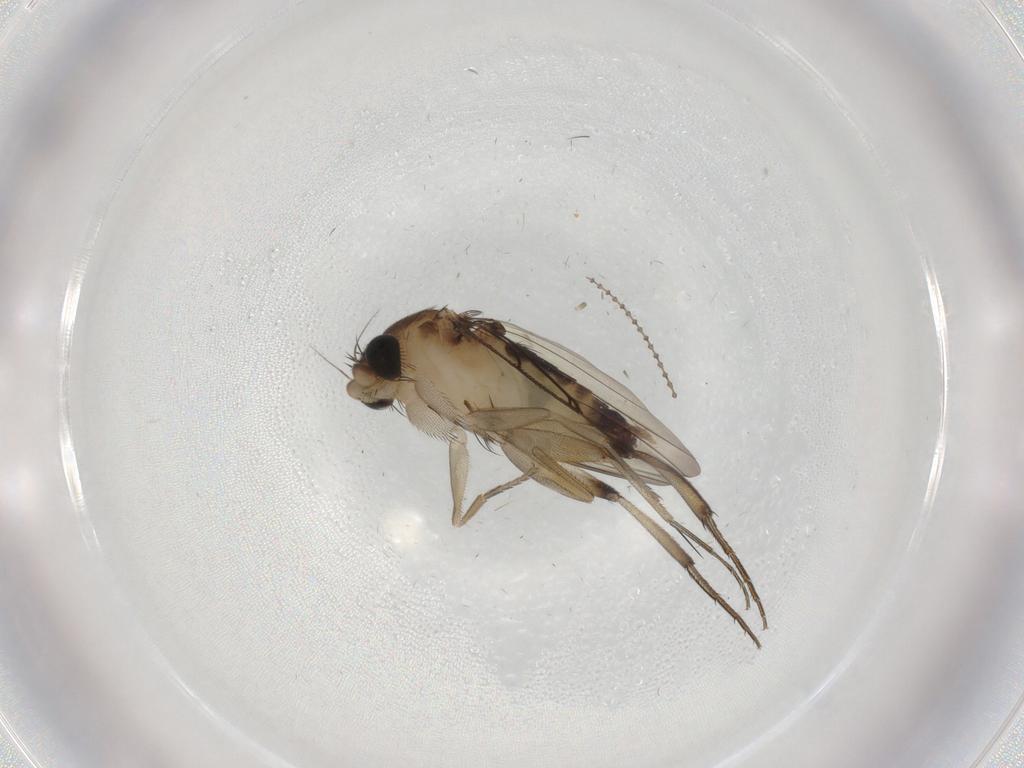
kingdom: Animalia
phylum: Arthropoda
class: Insecta
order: Diptera
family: Phoridae
